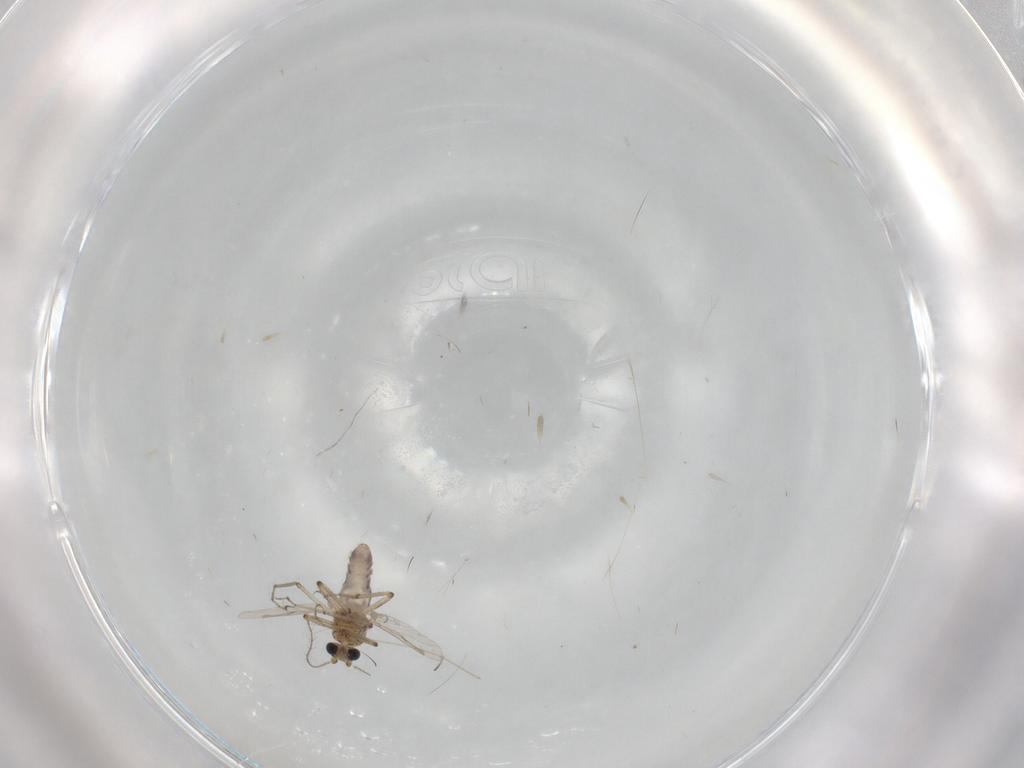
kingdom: Animalia
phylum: Arthropoda
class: Insecta
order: Diptera
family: Ceratopogonidae
